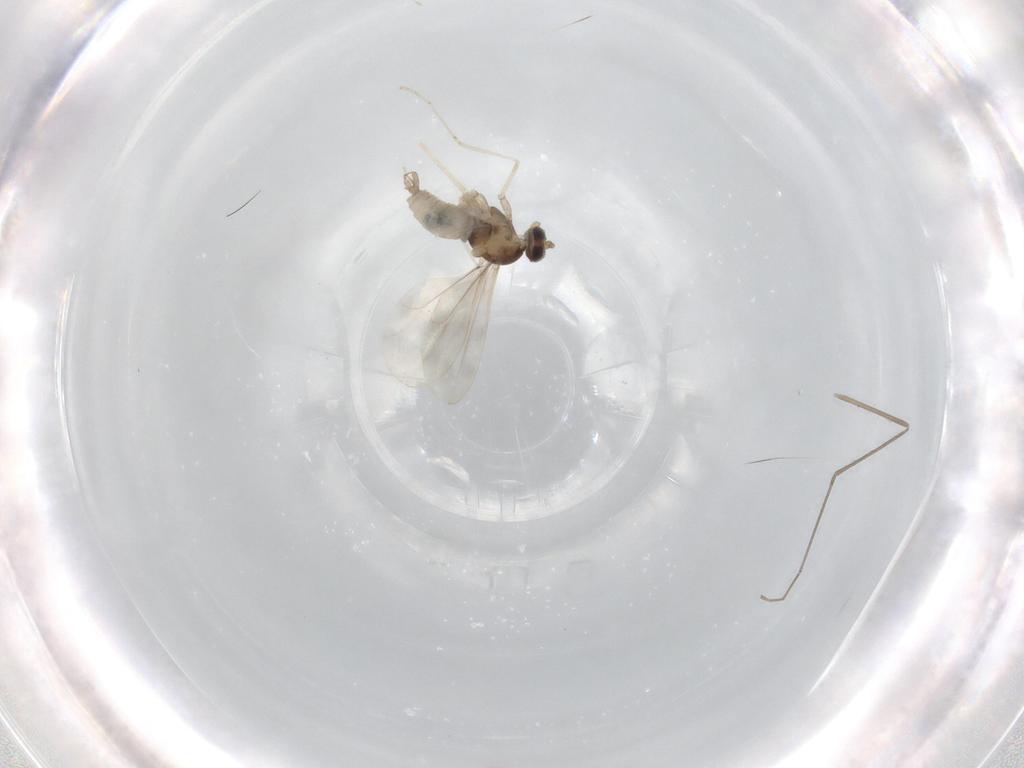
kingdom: Animalia
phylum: Arthropoda
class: Insecta
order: Diptera
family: Cecidomyiidae
